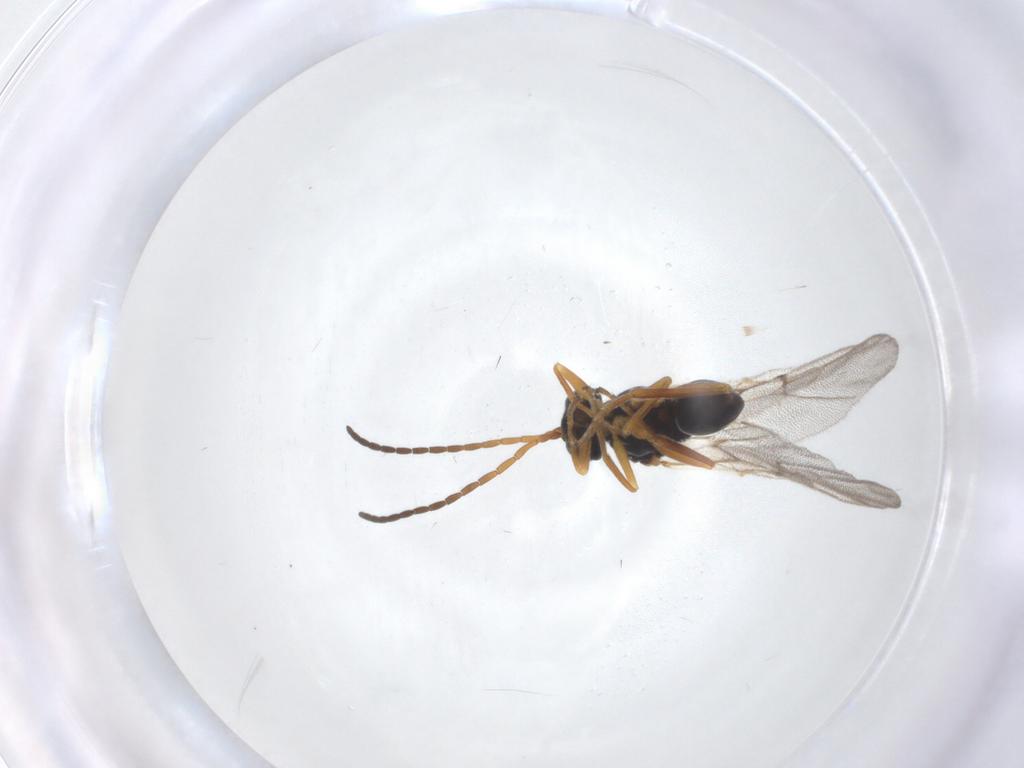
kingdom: Animalia
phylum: Arthropoda
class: Insecta
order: Hymenoptera
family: Cynipidae
